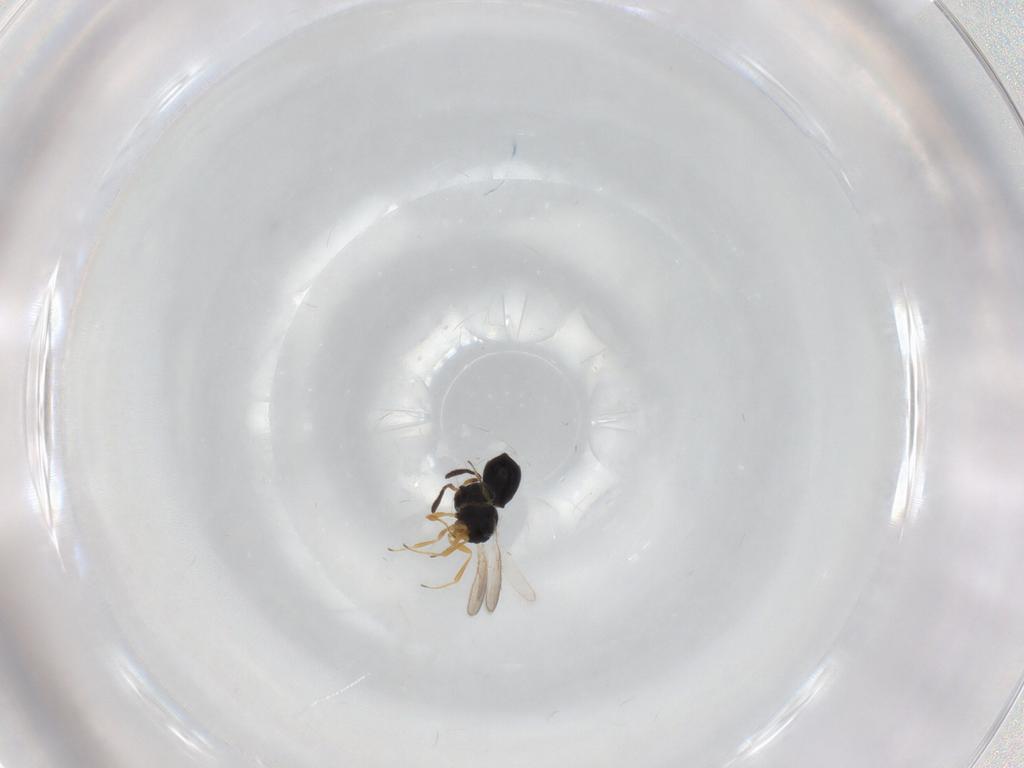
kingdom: Animalia
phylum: Arthropoda
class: Insecta
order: Hymenoptera
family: Scelionidae
